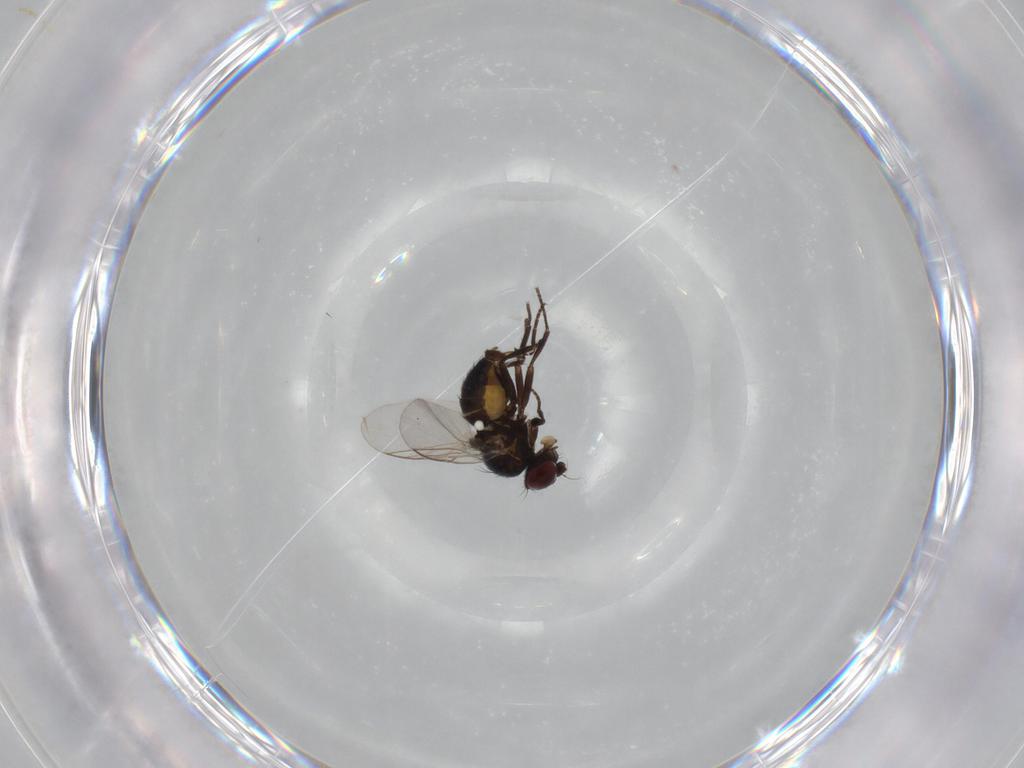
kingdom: Animalia
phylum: Arthropoda
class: Insecta
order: Diptera
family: Agromyzidae
